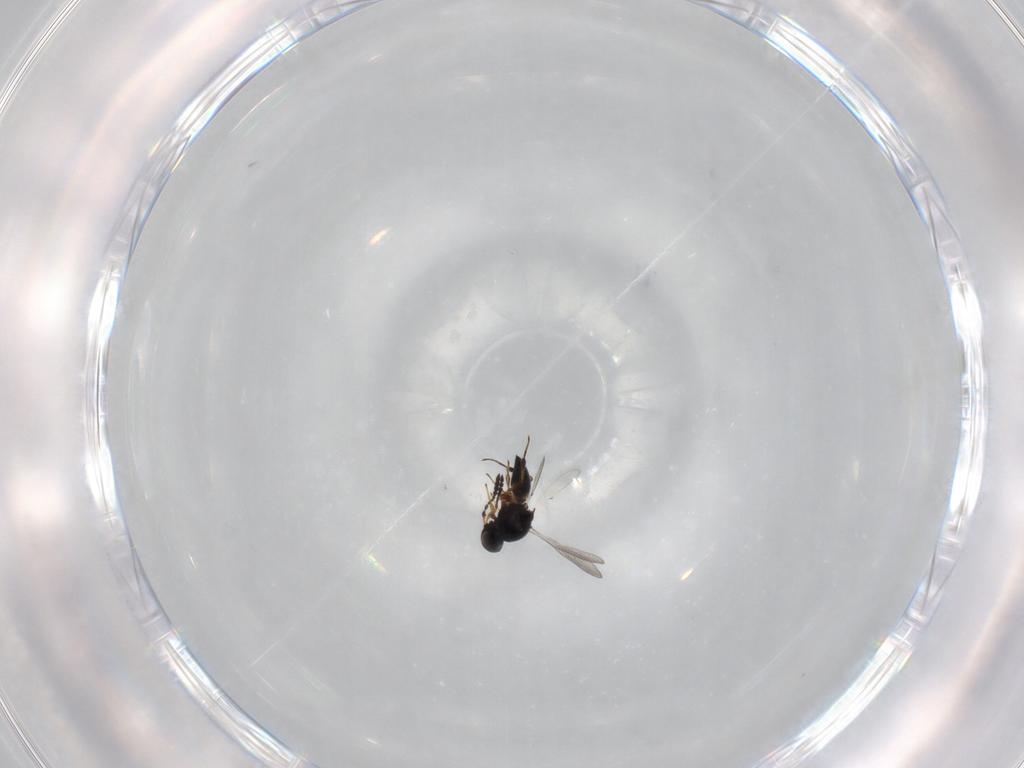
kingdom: Animalia
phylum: Arthropoda
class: Insecta
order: Hymenoptera
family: Platygastridae
